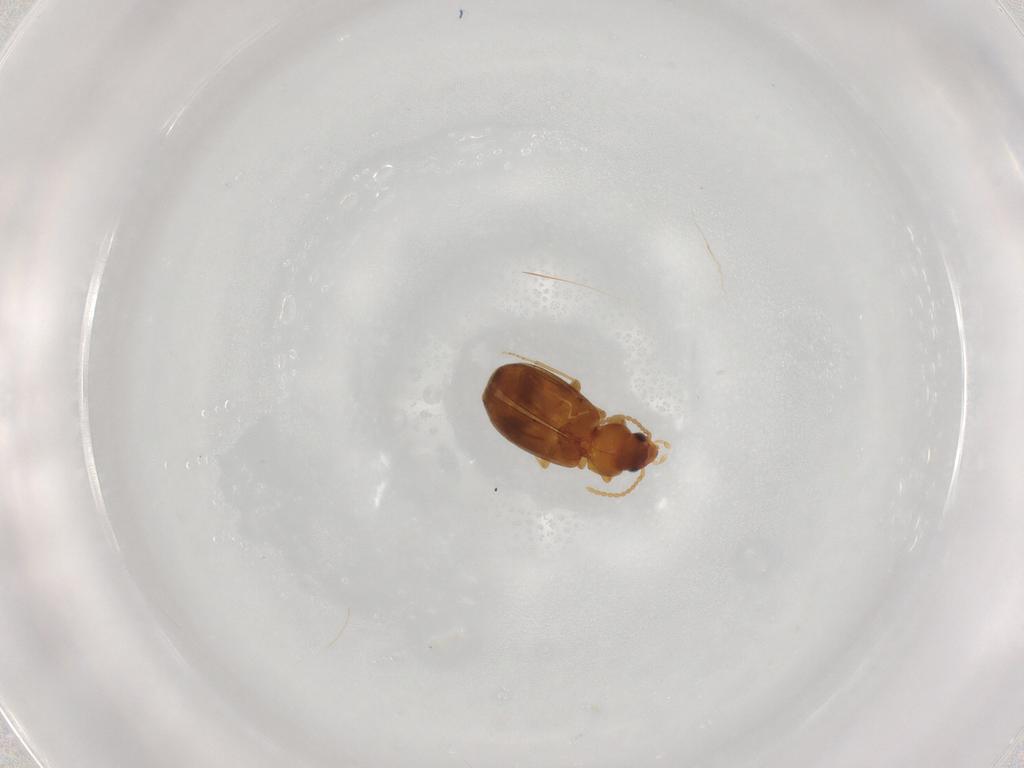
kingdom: Animalia
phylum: Arthropoda
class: Insecta
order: Coleoptera
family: Carabidae
